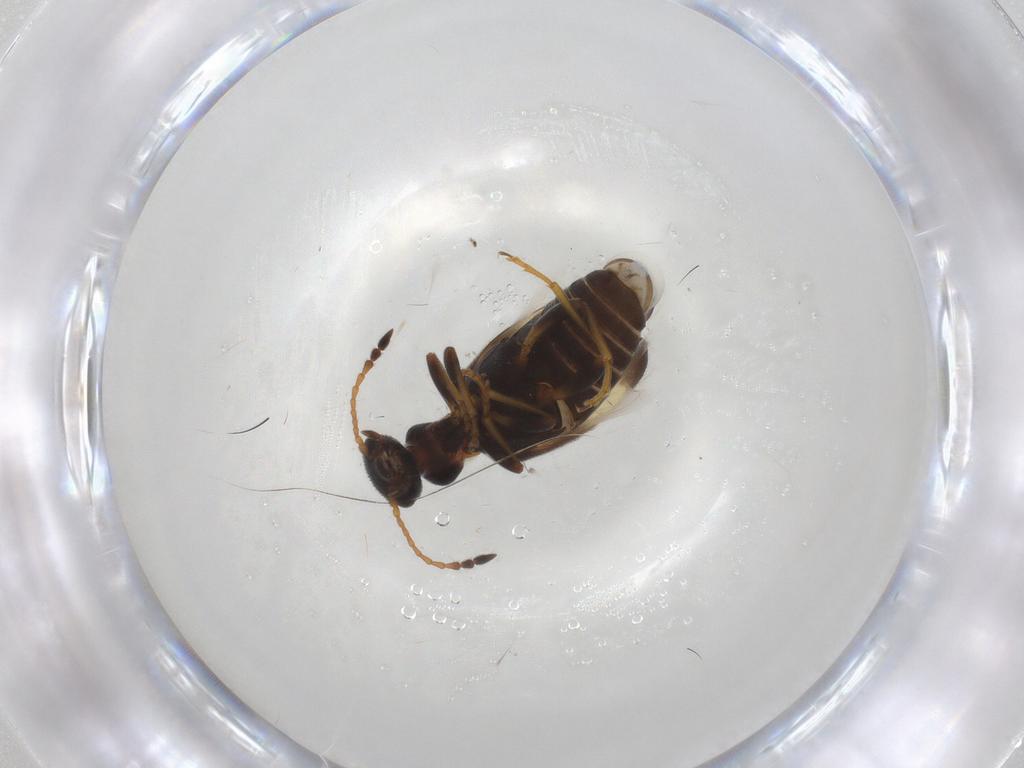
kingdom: Animalia
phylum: Arthropoda
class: Insecta
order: Coleoptera
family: Anthicidae
